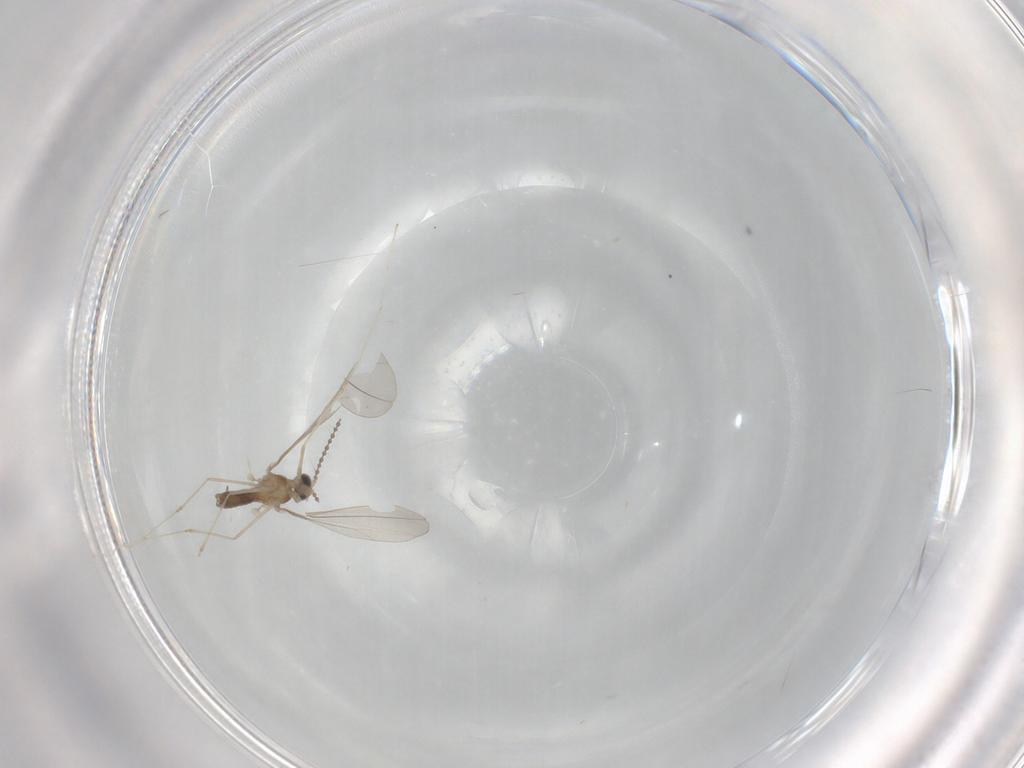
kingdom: Animalia
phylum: Arthropoda
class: Insecta
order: Diptera
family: Cecidomyiidae
